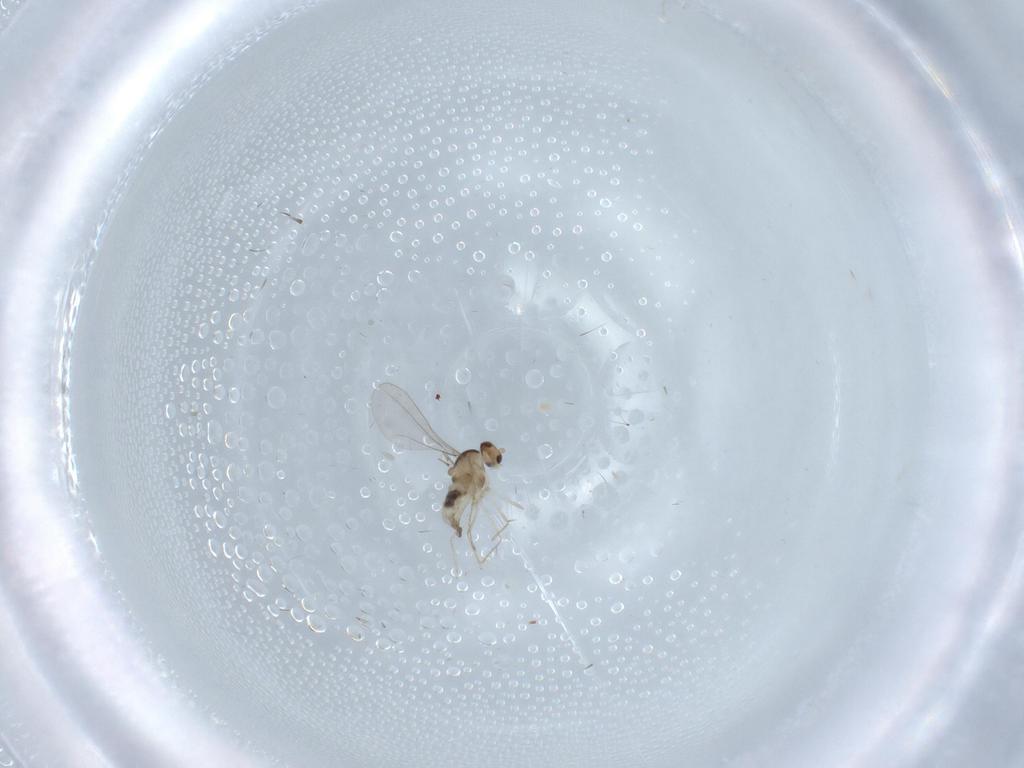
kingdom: Animalia
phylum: Arthropoda
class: Insecta
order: Diptera
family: Cecidomyiidae
